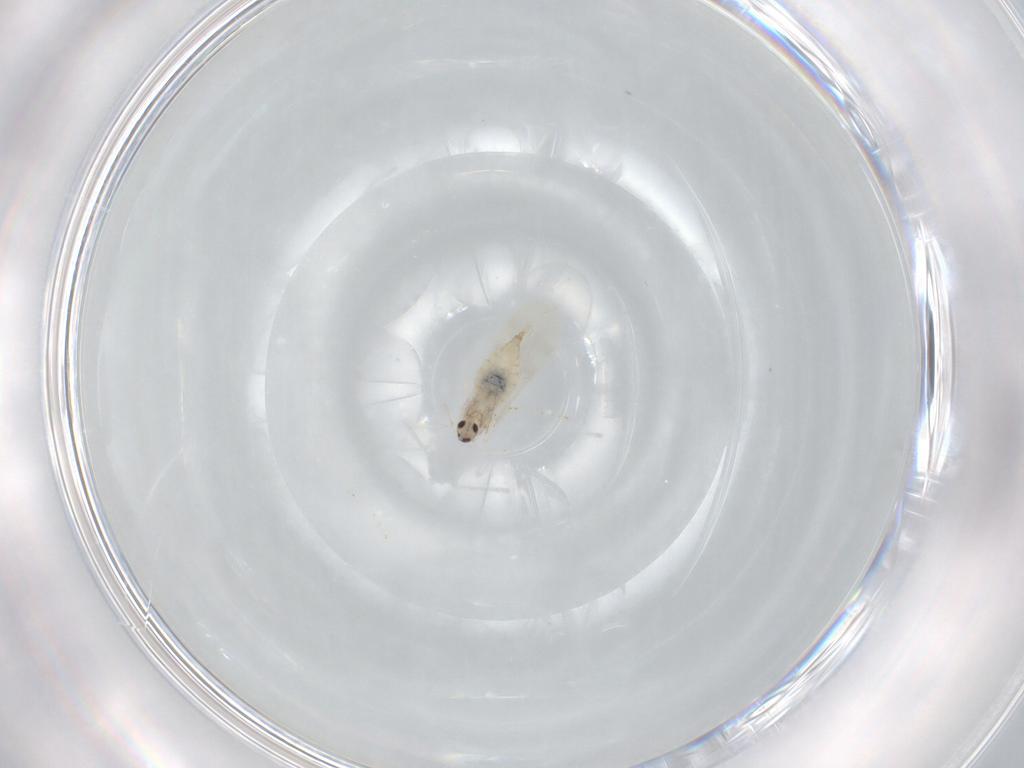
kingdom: Animalia
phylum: Arthropoda
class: Insecta
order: Diptera
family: Cecidomyiidae
